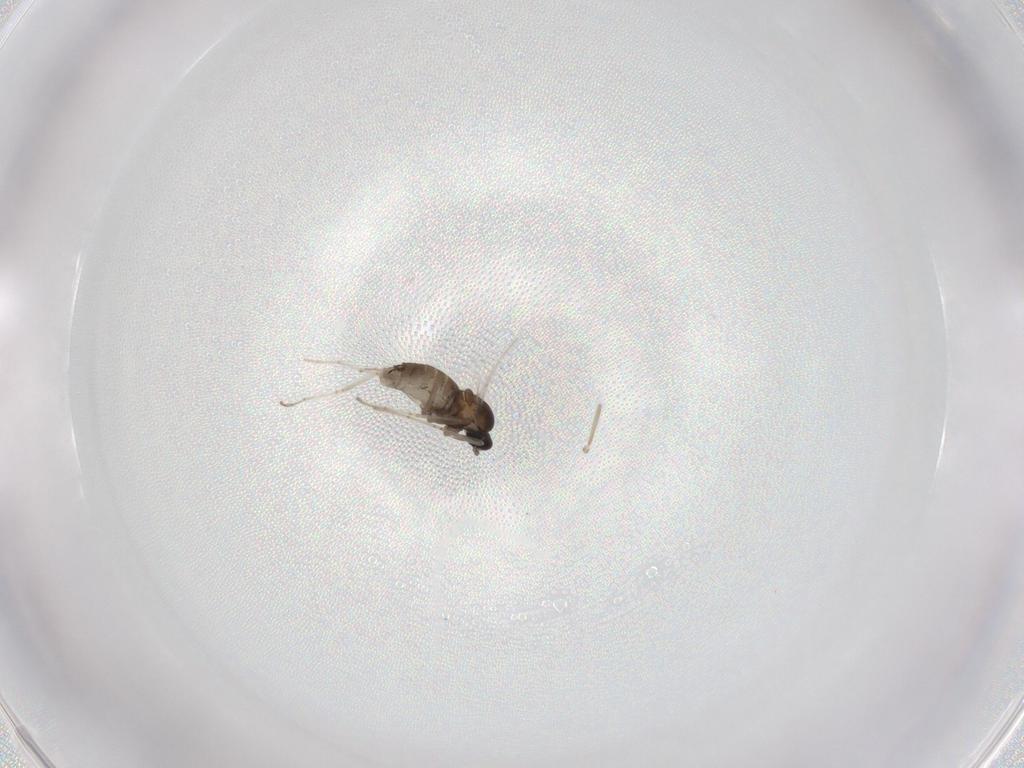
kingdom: Animalia
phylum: Arthropoda
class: Insecta
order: Diptera
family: Cecidomyiidae
